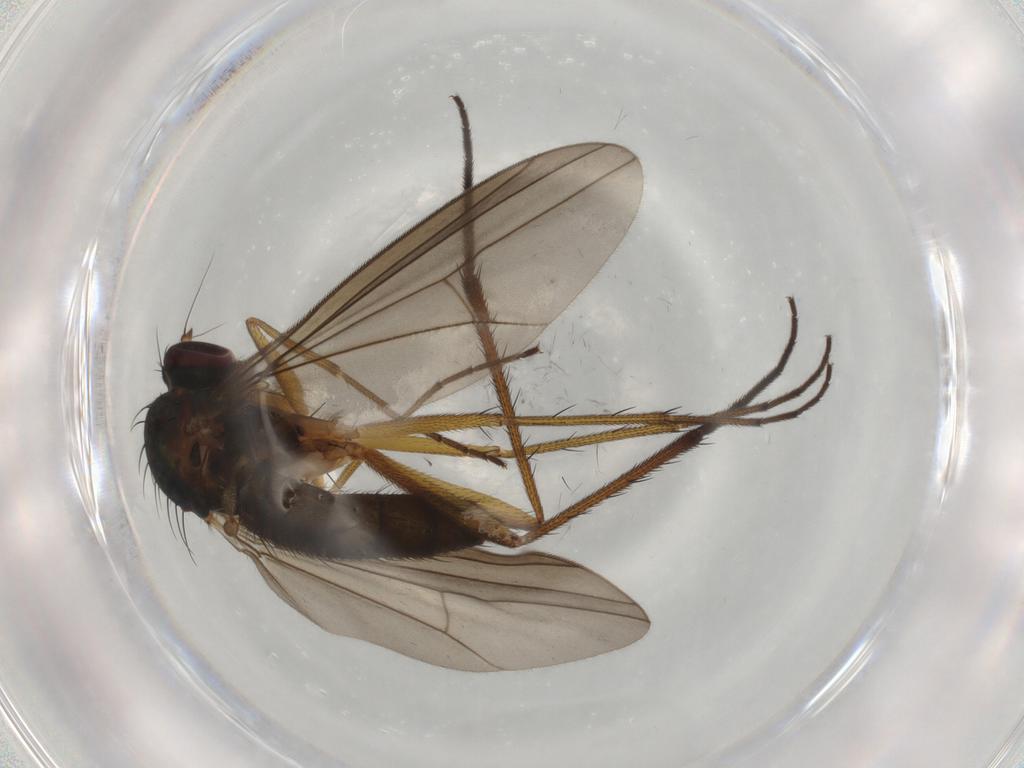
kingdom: Animalia
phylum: Arthropoda
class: Insecta
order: Diptera
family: Dolichopodidae
